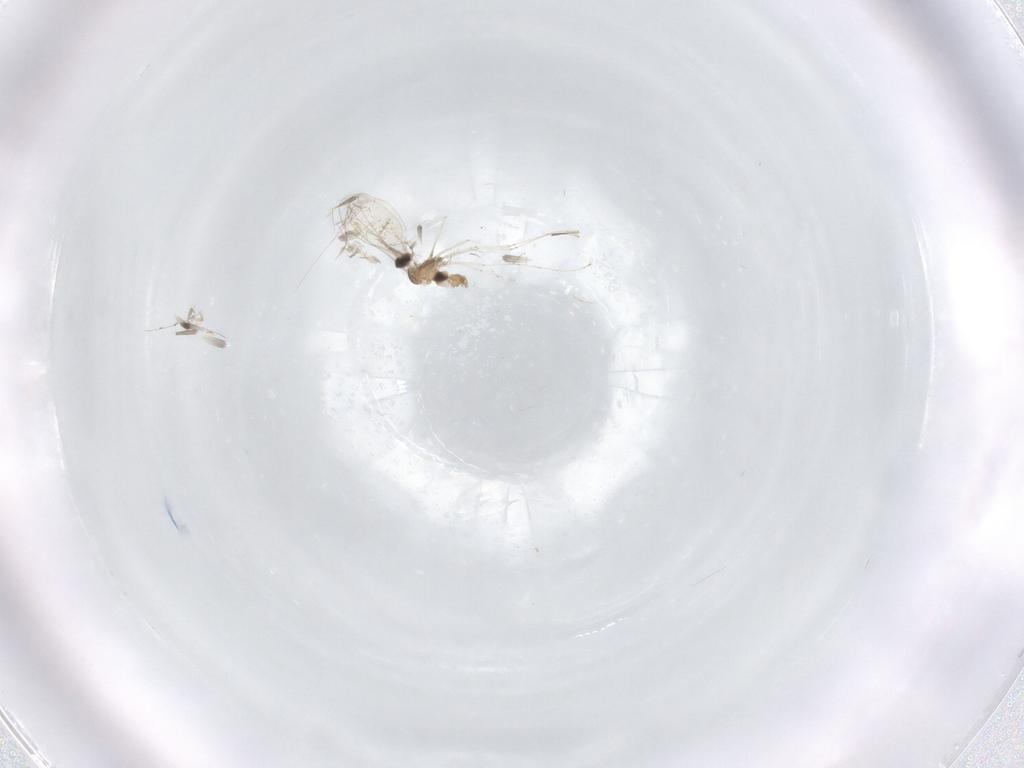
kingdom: Animalia
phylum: Arthropoda
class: Insecta
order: Diptera
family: Cecidomyiidae
